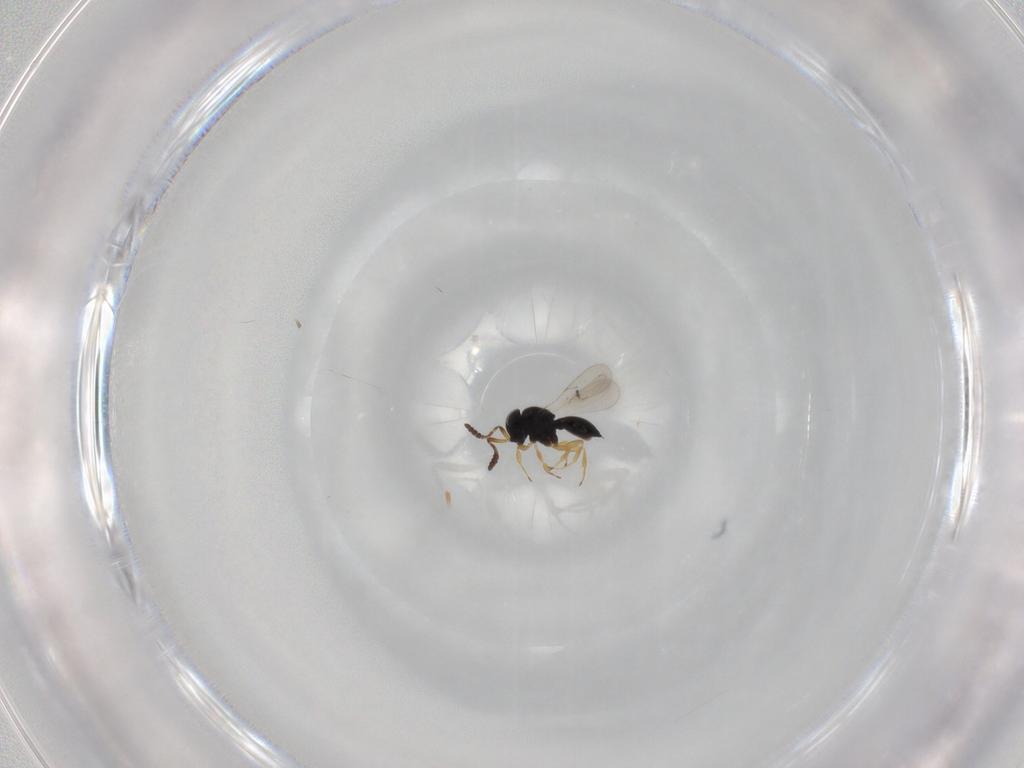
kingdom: Animalia
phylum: Arthropoda
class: Insecta
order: Hymenoptera
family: Scelionidae
